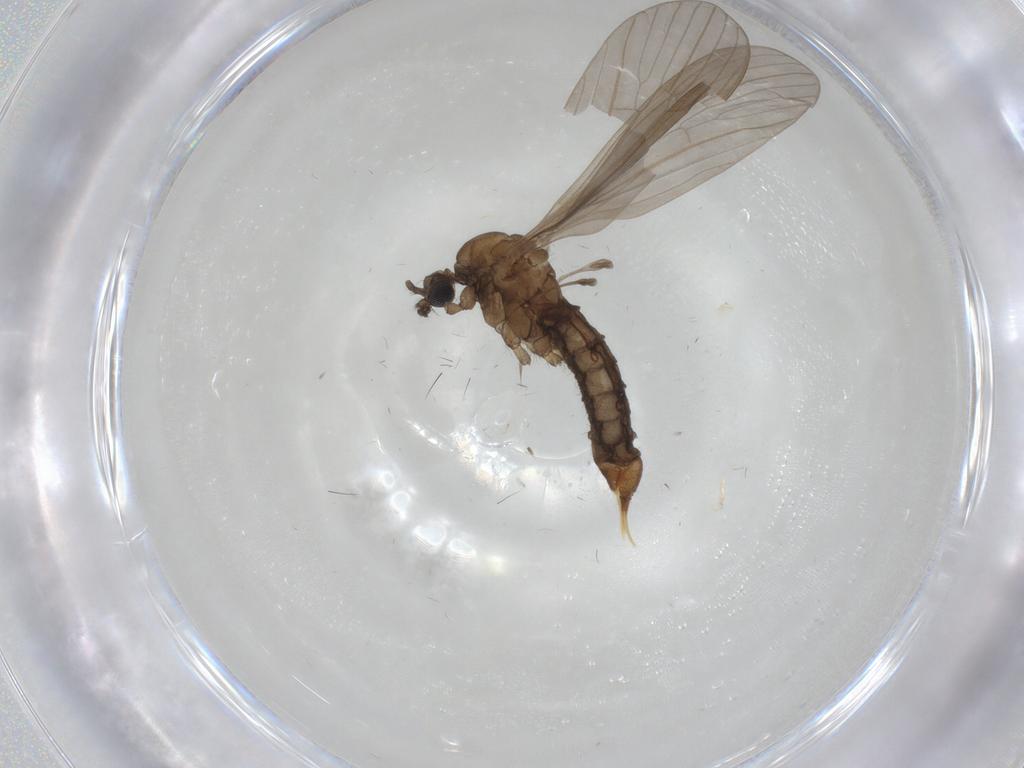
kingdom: Animalia
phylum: Arthropoda
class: Insecta
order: Diptera
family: Limoniidae
